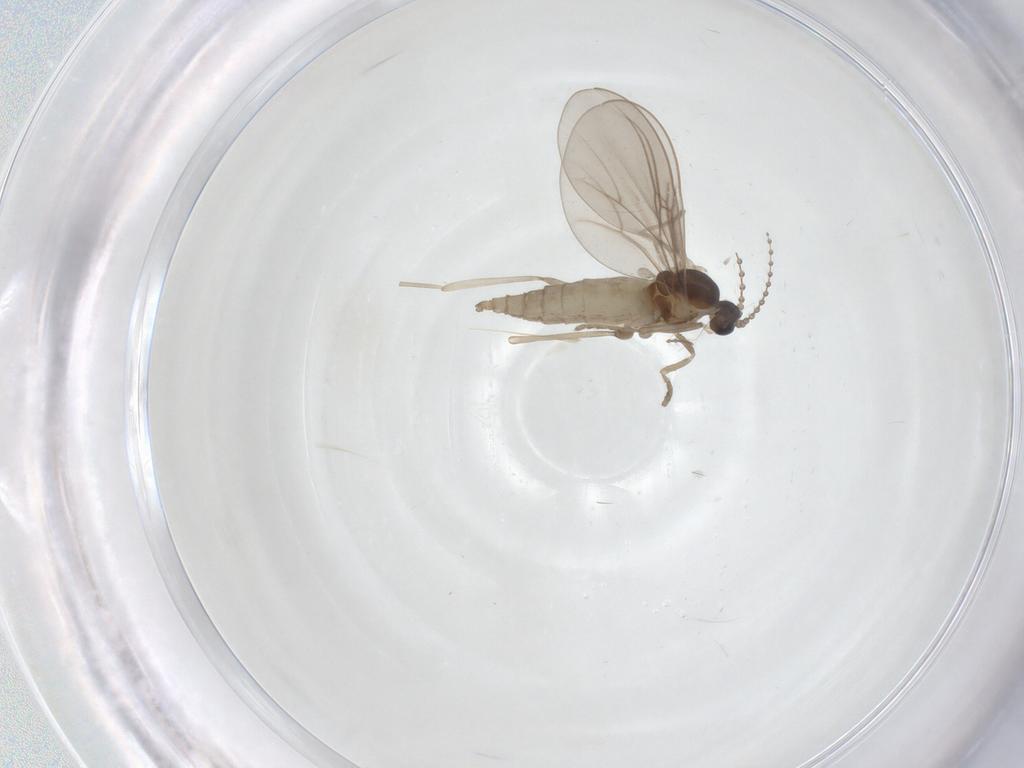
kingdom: Animalia
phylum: Arthropoda
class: Insecta
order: Diptera
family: Cecidomyiidae
